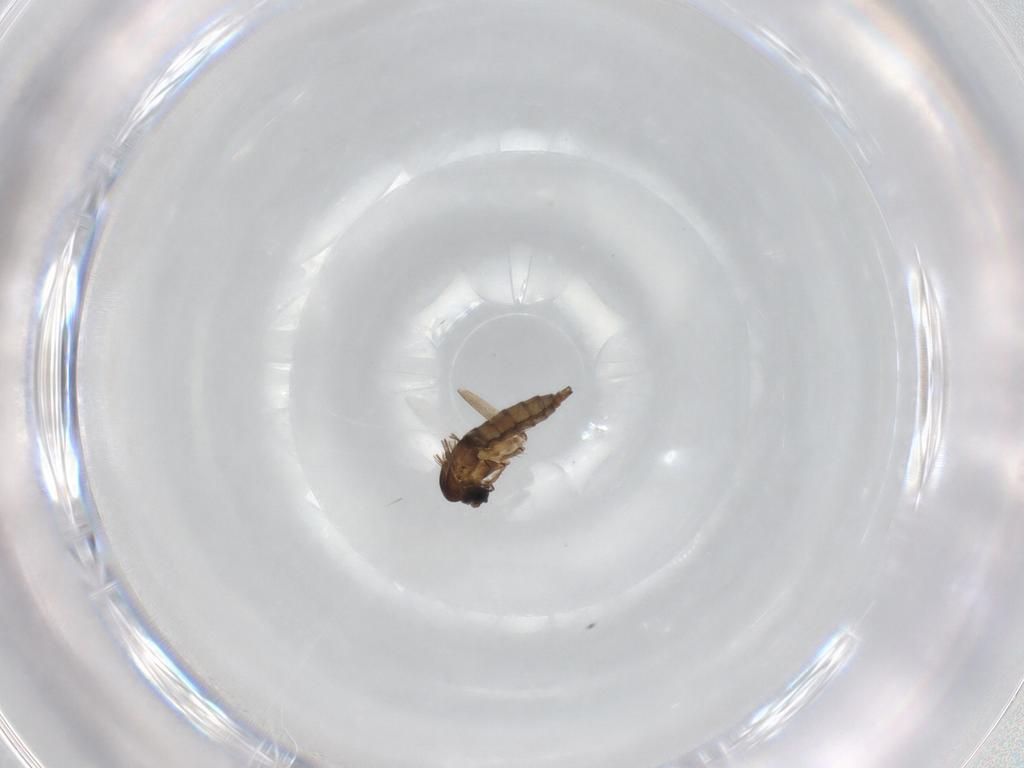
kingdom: Animalia
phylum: Arthropoda
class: Insecta
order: Diptera
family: Sciaridae
